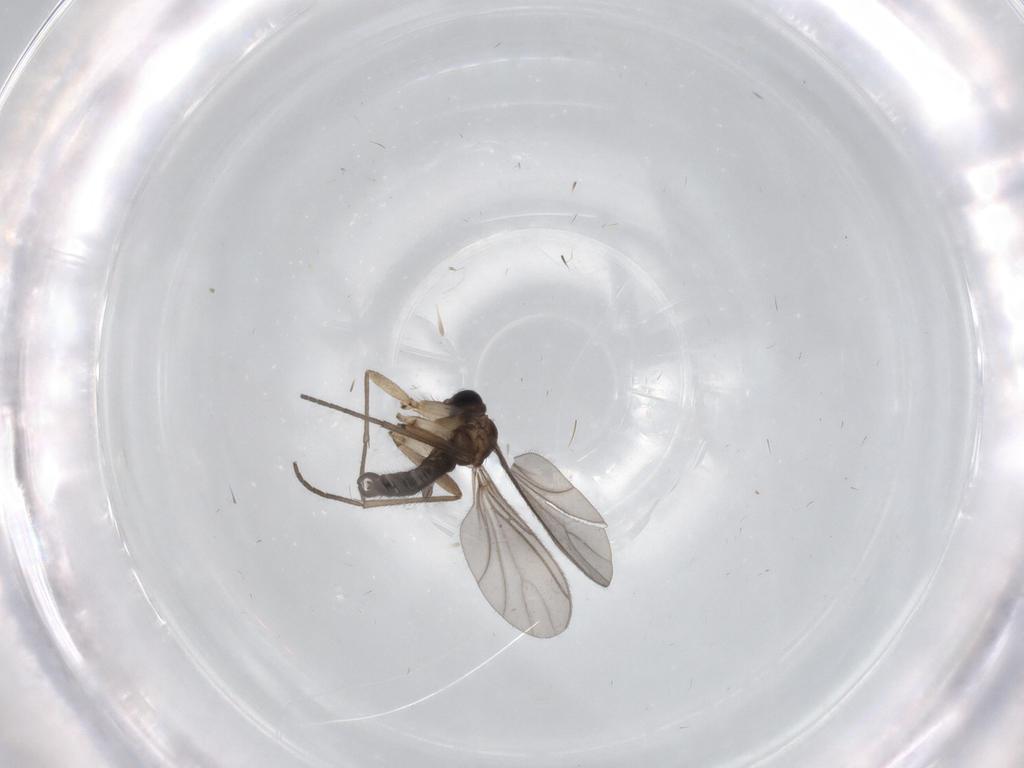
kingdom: Animalia
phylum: Arthropoda
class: Insecta
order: Diptera
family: Sciaridae
